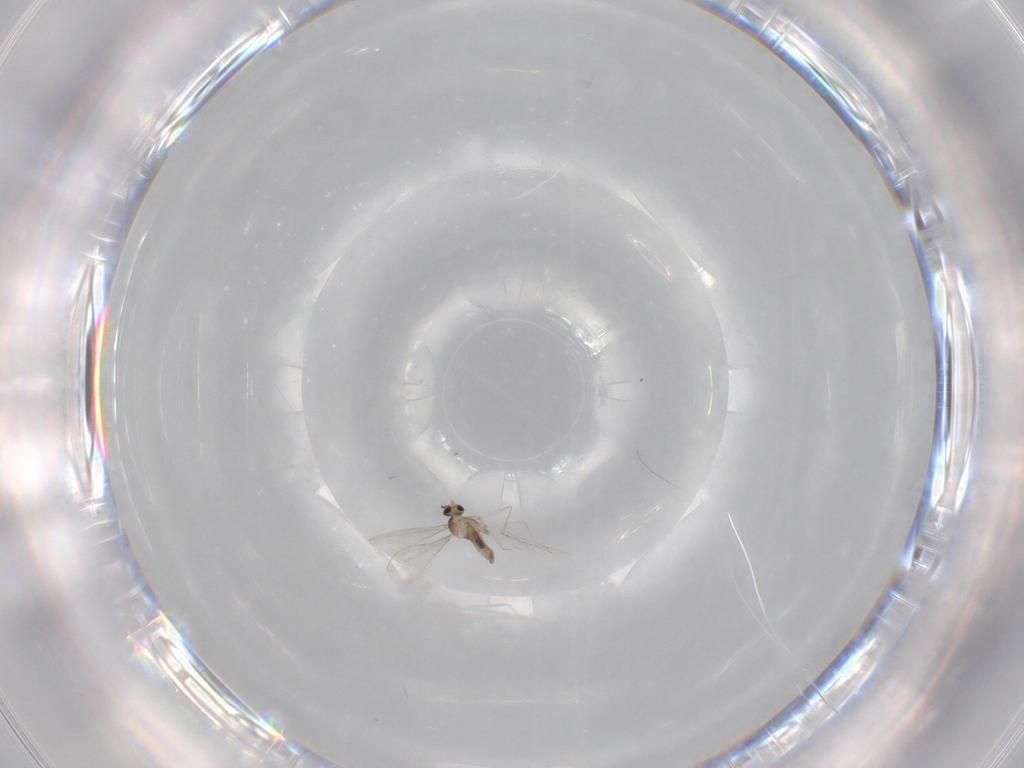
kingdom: Animalia
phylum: Arthropoda
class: Insecta
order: Diptera
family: Cecidomyiidae
